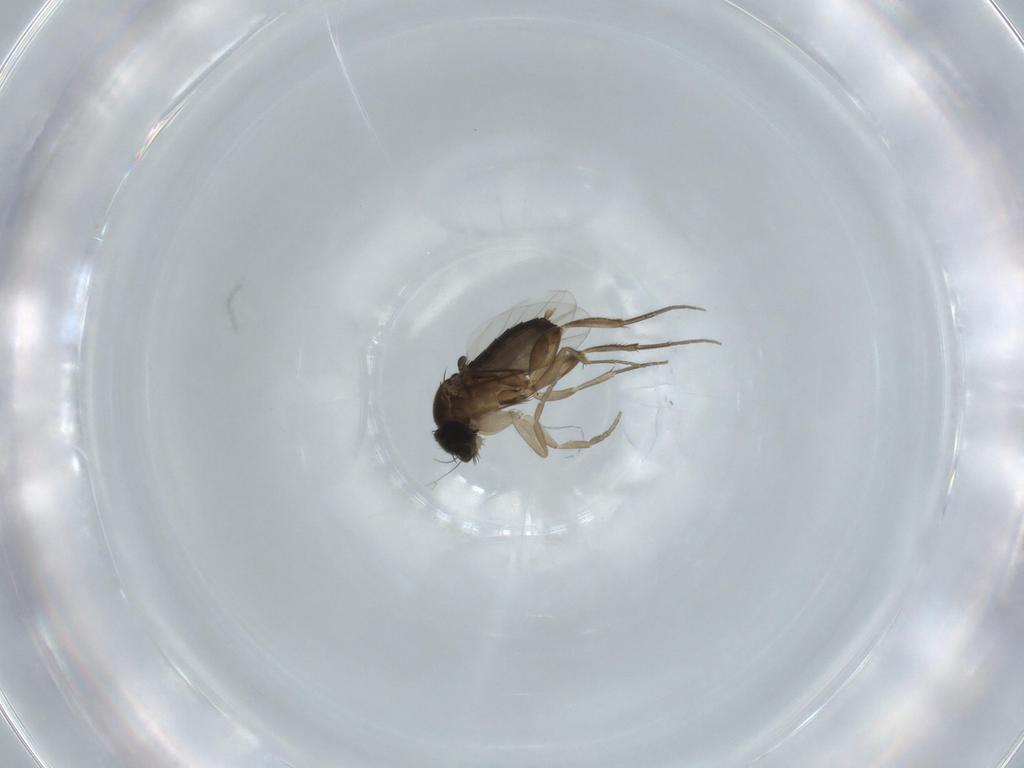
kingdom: Animalia
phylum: Arthropoda
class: Insecta
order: Diptera
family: Phoridae
